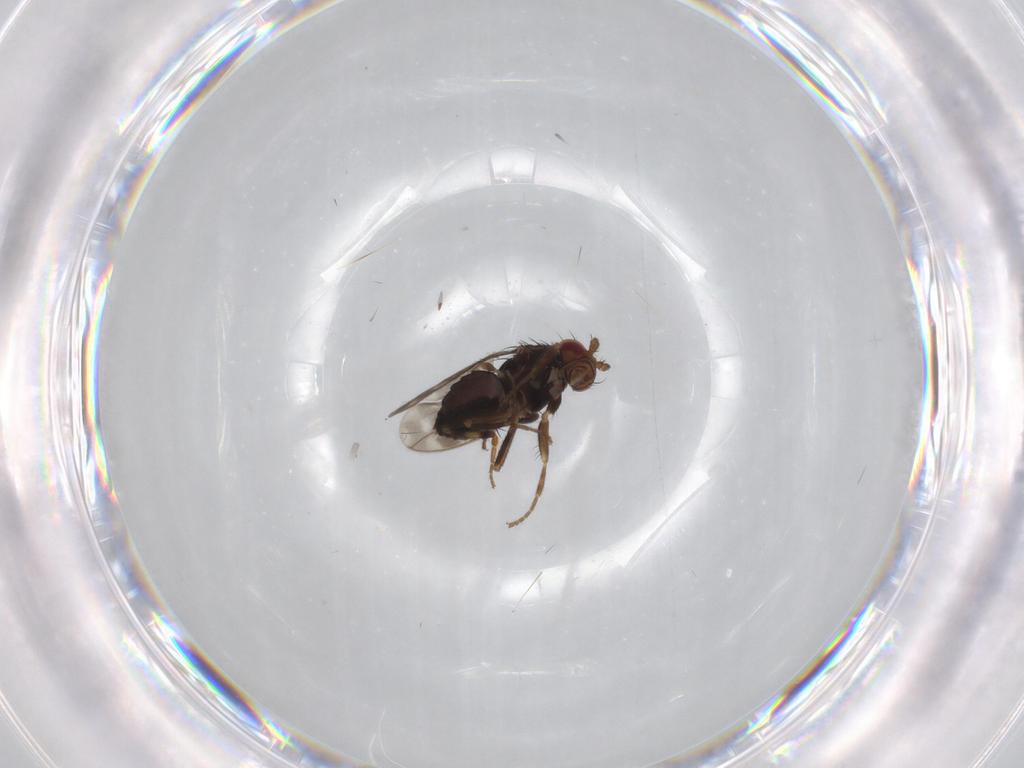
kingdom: Animalia
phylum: Arthropoda
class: Insecta
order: Diptera
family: Sphaeroceridae
